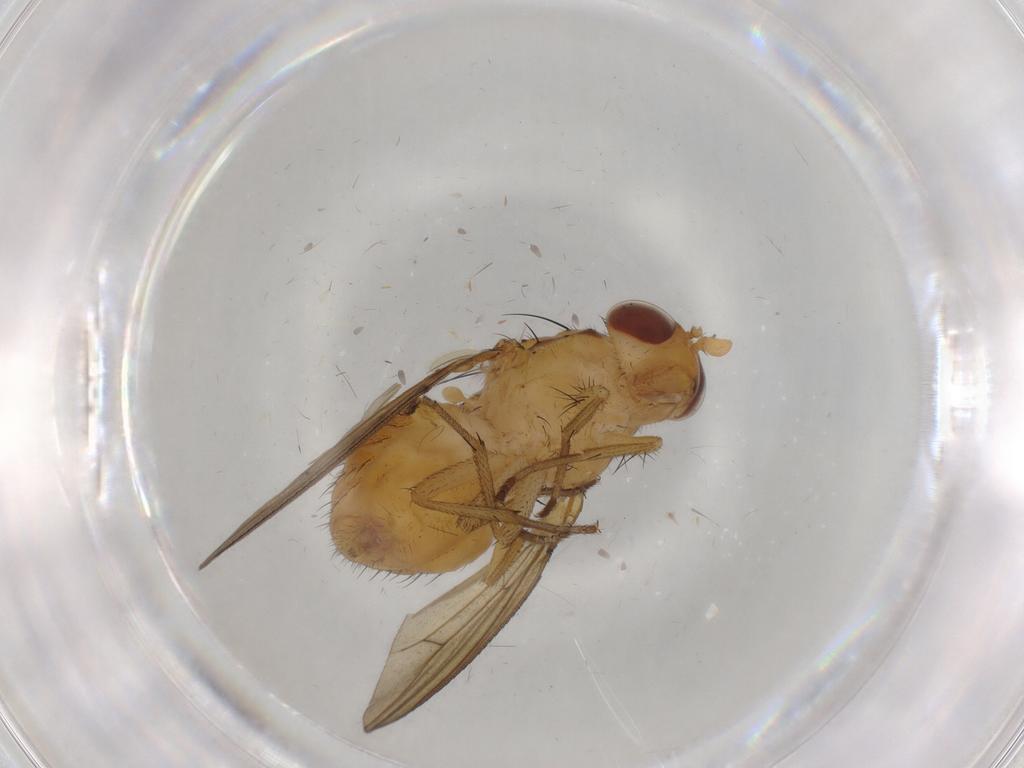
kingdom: Animalia
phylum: Arthropoda
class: Insecta
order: Diptera
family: Lauxaniidae
